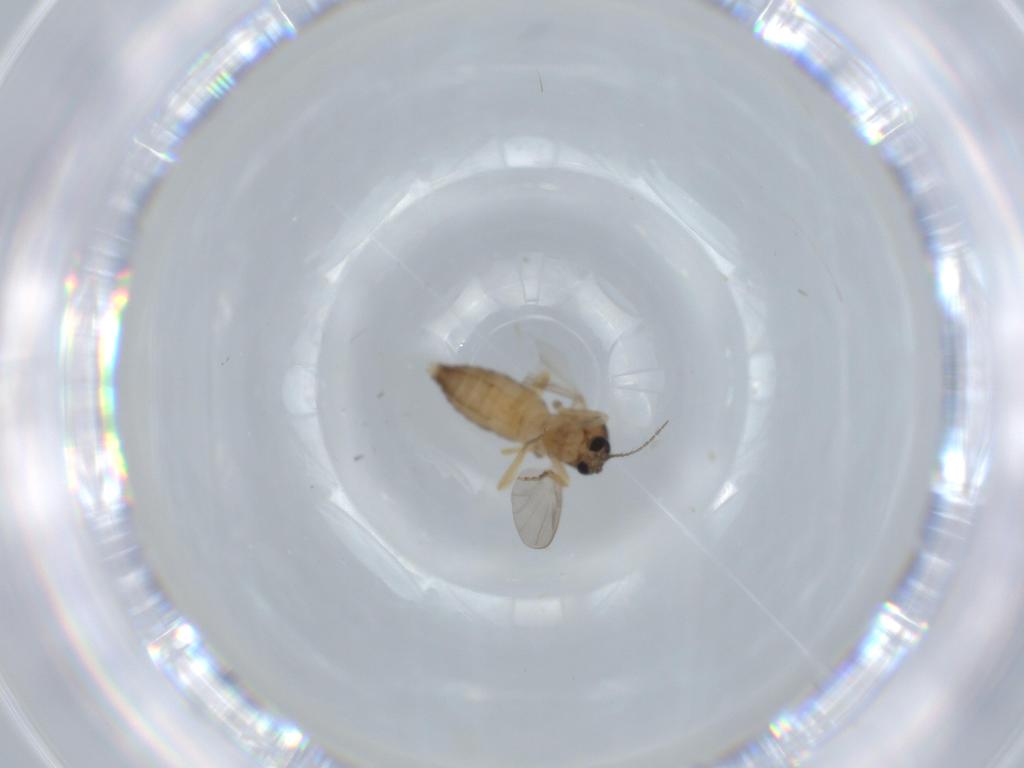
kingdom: Animalia
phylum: Arthropoda
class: Insecta
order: Diptera
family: Ceratopogonidae
